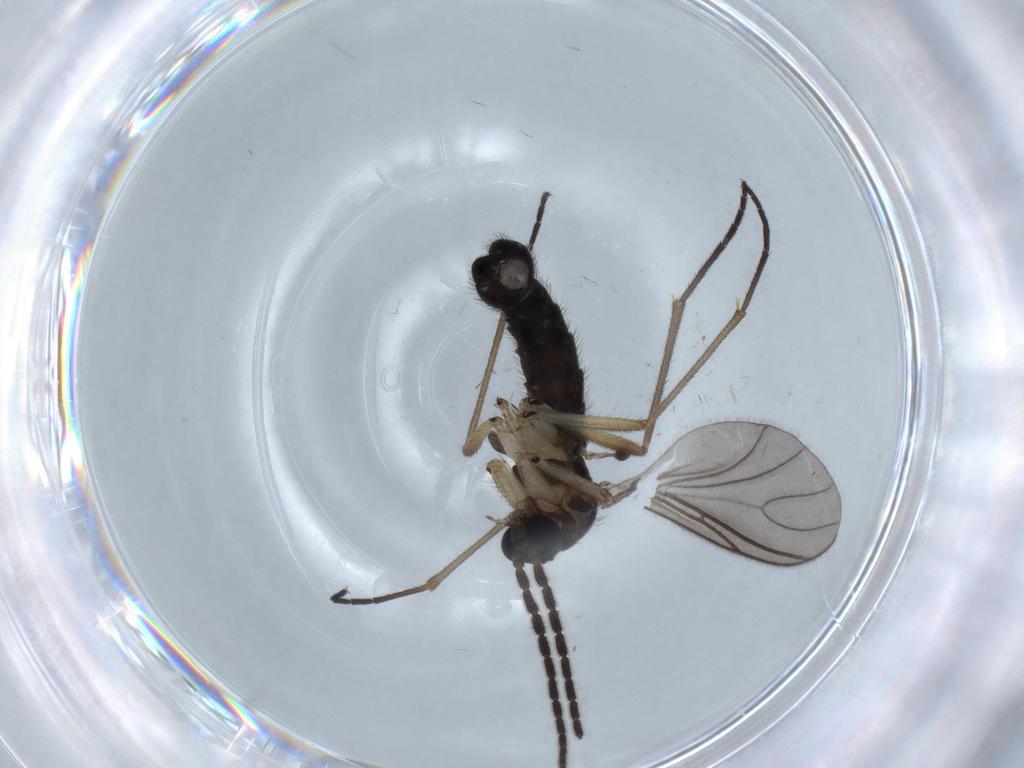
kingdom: Animalia
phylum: Arthropoda
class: Insecta
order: Diptera
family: Sciaridae
